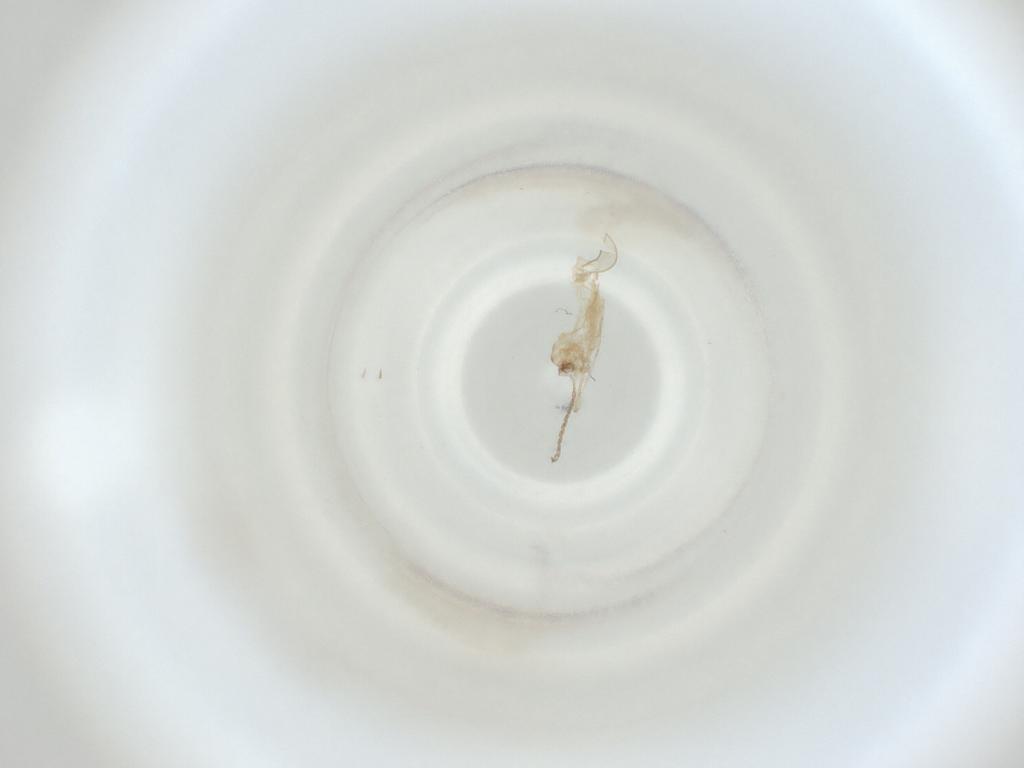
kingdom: Animalia
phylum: Arthropoda
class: Insecta
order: Diptera
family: Cecidomyiidae
